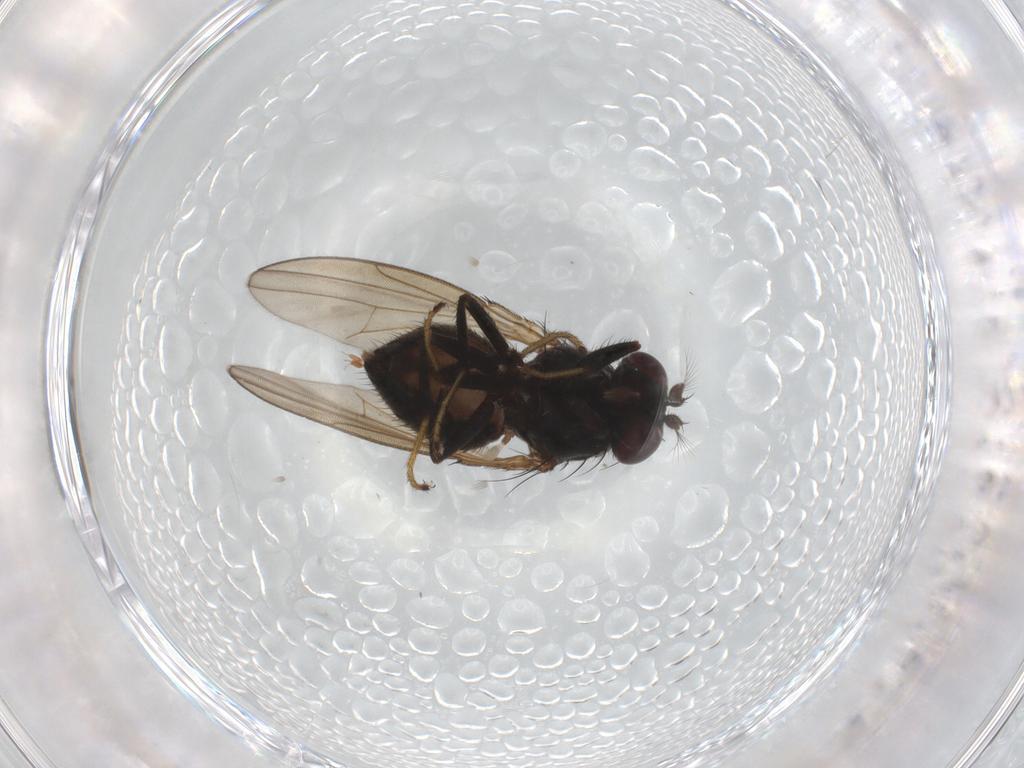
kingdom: Animalia
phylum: Arthropoda
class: Insecta
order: Diptera
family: Ephydridae
